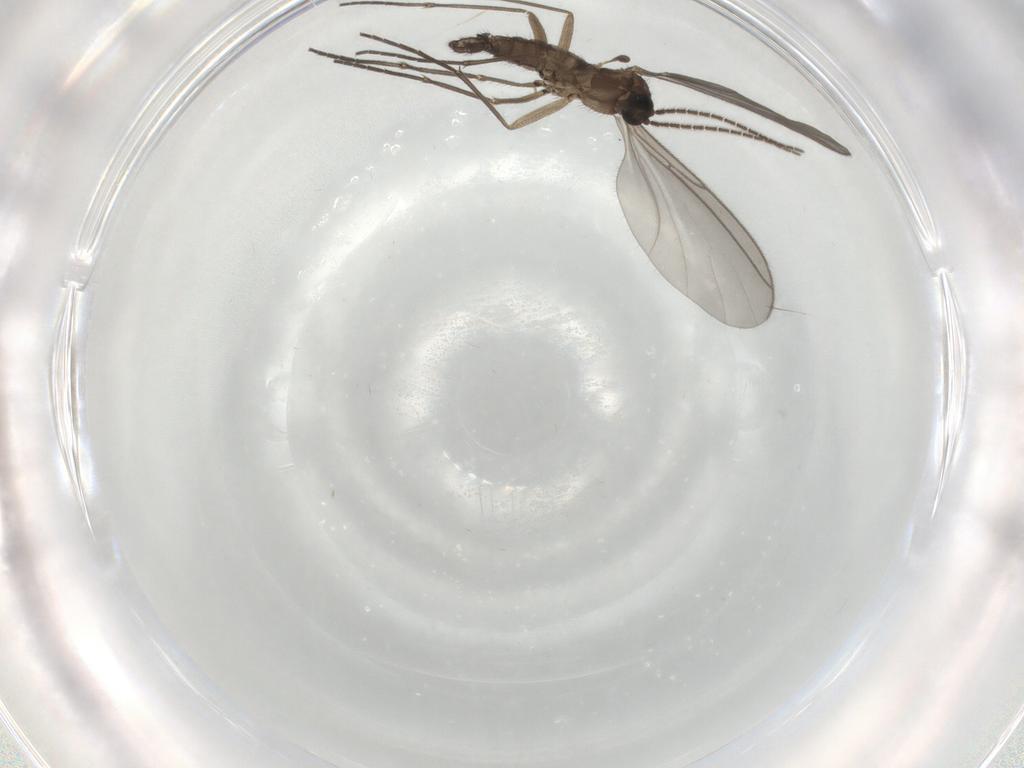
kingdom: Animalia
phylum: Arthropoda
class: Insecta
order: Diptera
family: Sciaridae
